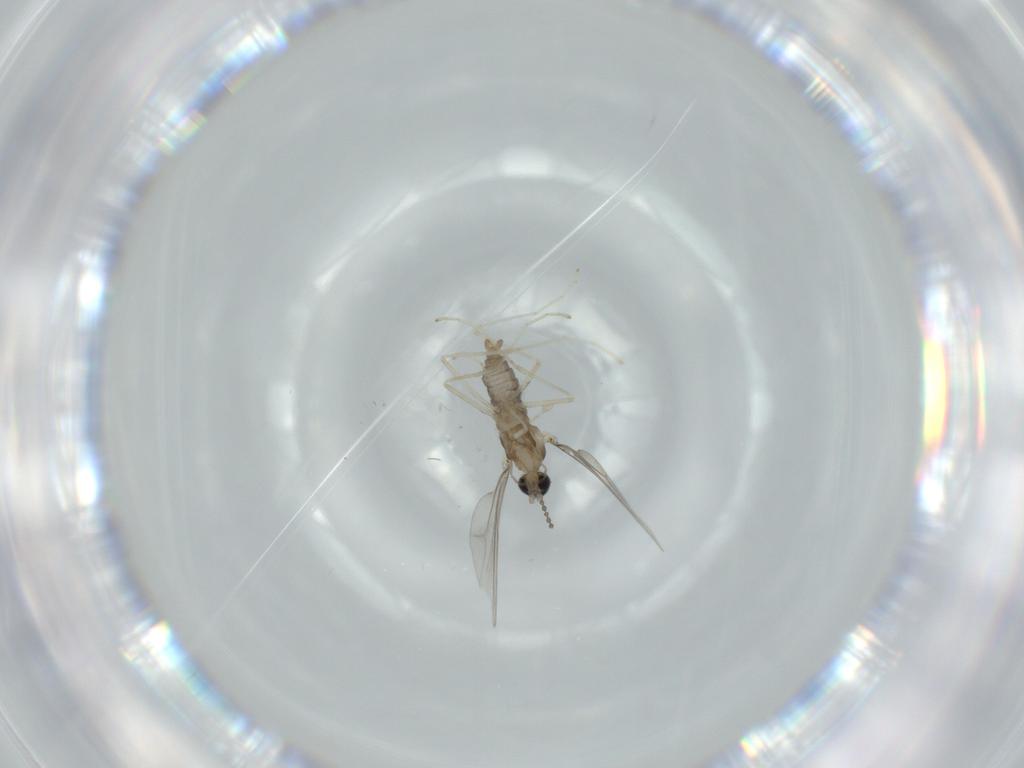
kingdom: Animalia
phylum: Arthropoda
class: Insecta
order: Diptera
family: Cecidomyiidae
